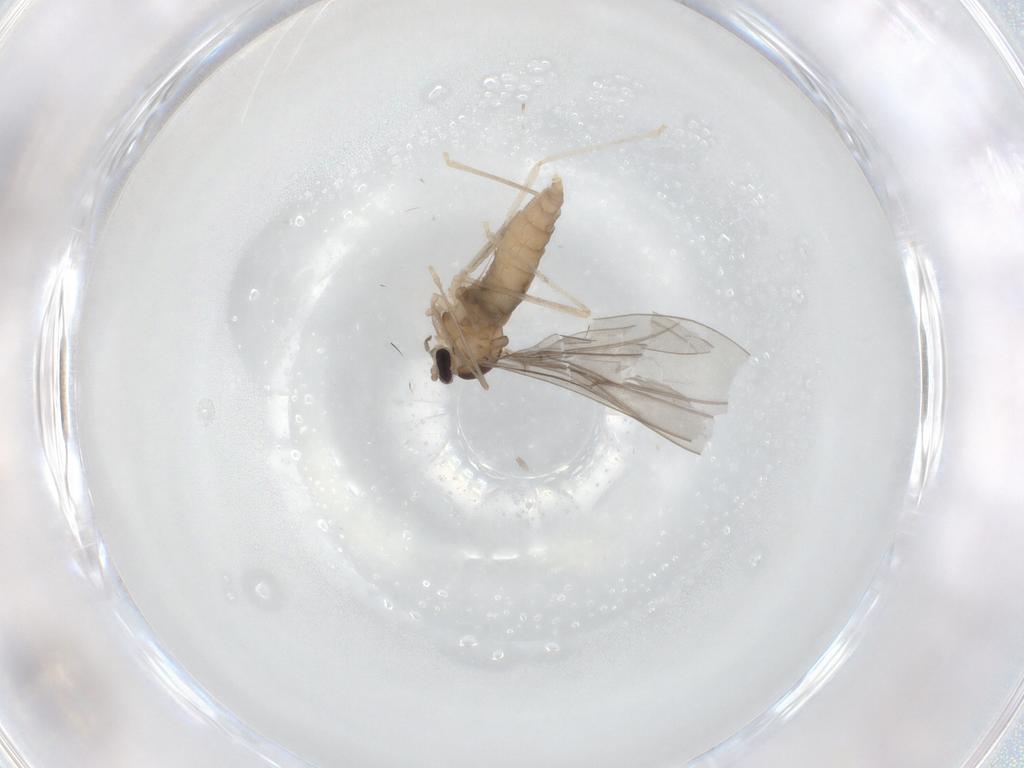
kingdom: Animalia
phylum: Arthropoda
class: Insecta
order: Diptera
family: Cecidomyiidae
